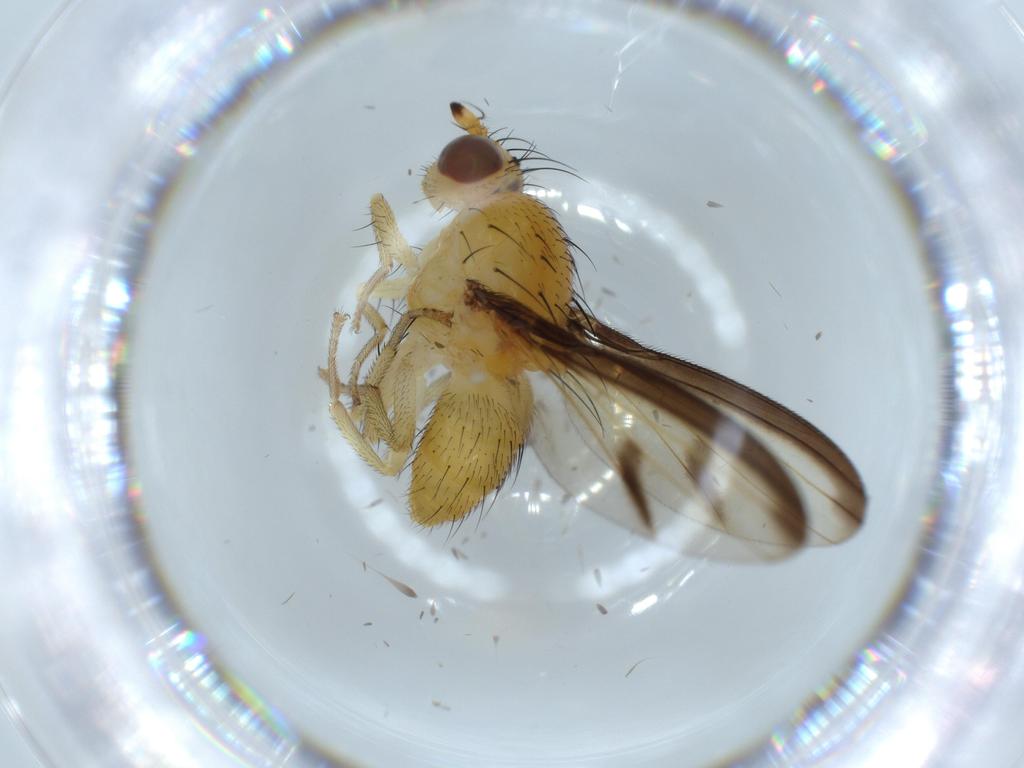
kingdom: Animalia
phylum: Arthropoda
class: Insecta
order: Diptera
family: Lauxaniidae
